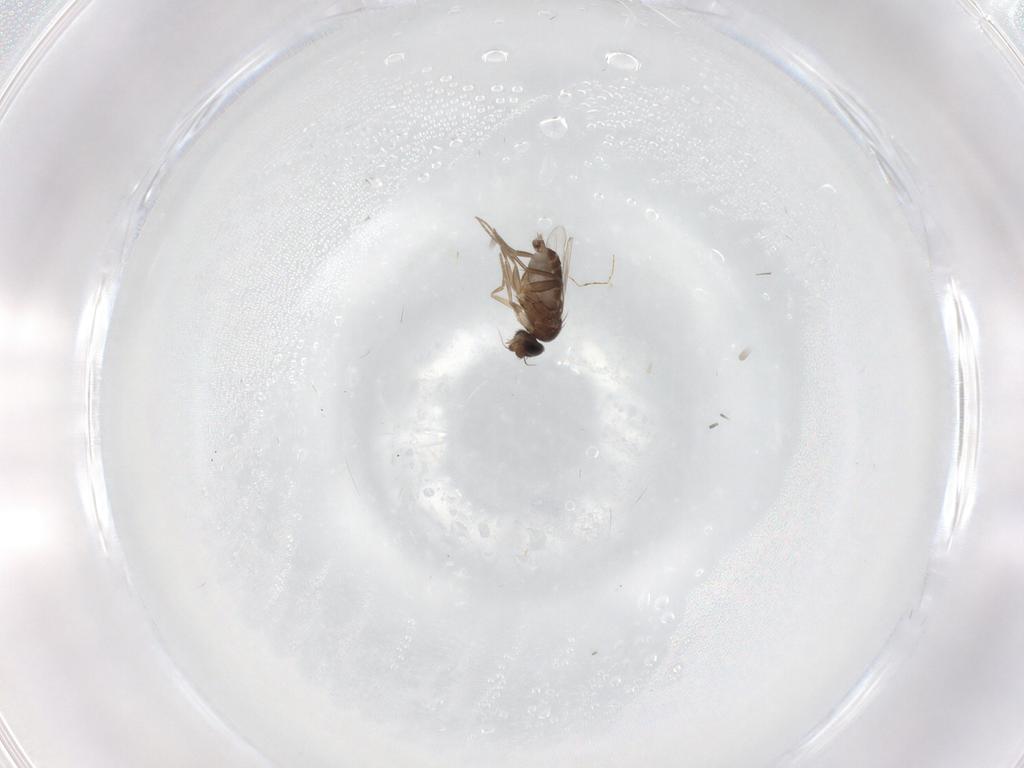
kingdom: Animalia
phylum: Arthropoda
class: Insecta
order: Diptera
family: Phoridae
